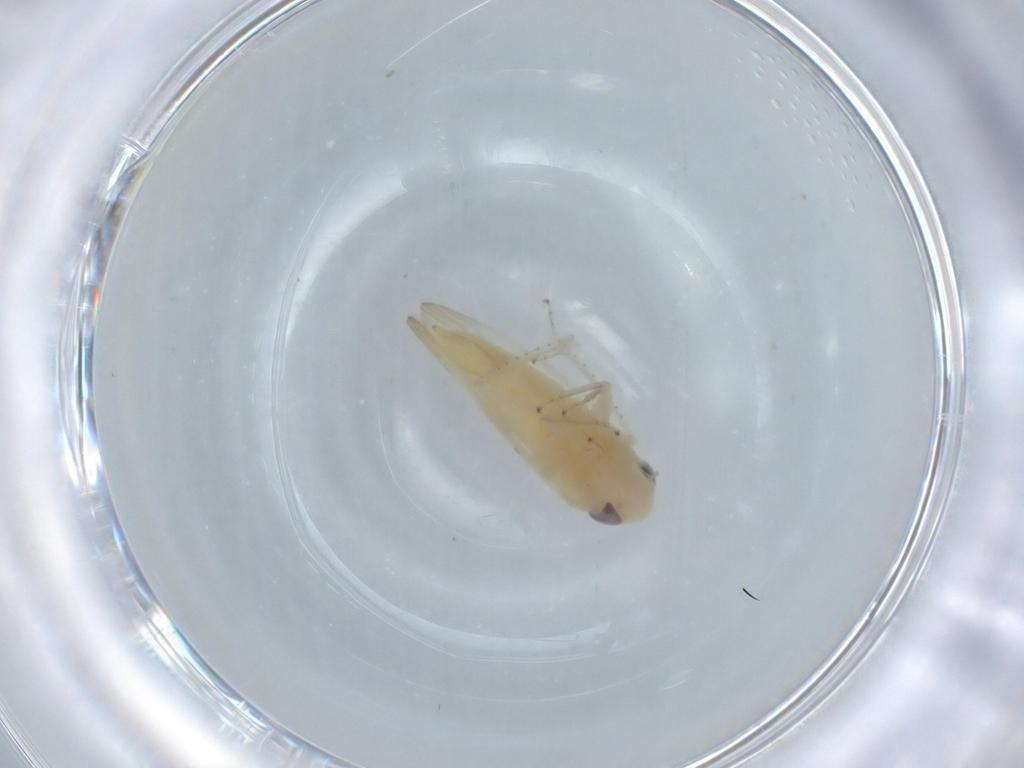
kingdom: Animalia
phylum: Arthropoda
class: Insecta
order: Hemiptera
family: Cicadellidae
